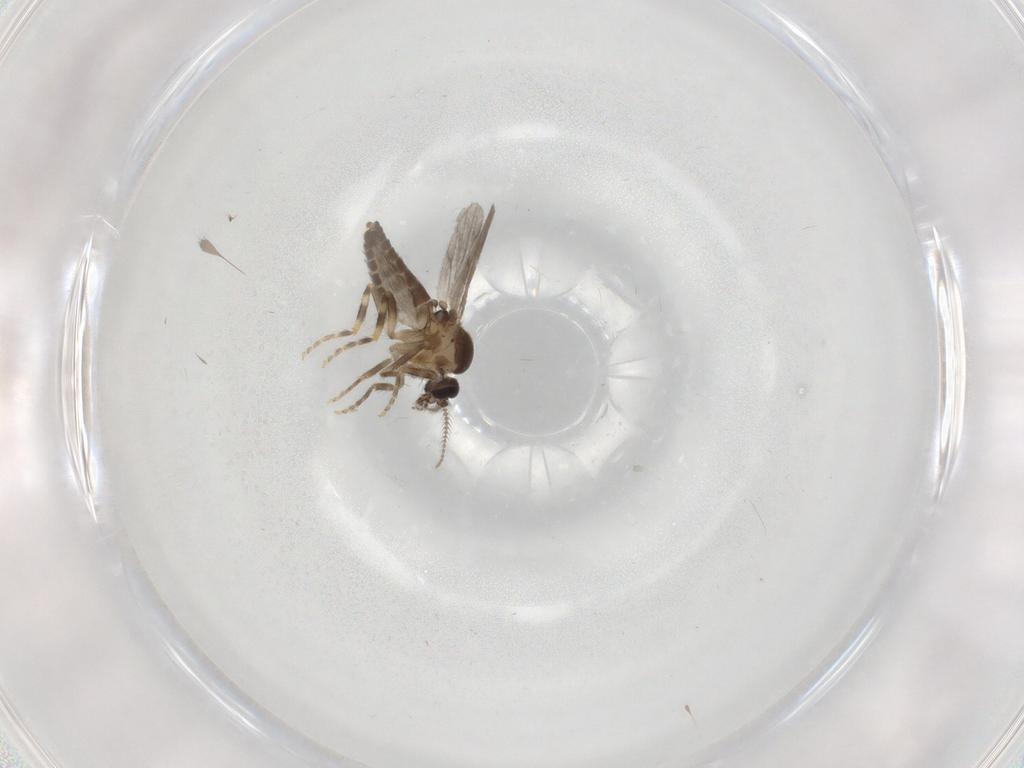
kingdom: Animalia
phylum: Arthropoda
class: Insecta
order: Diptera
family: Ceratopogonidae
